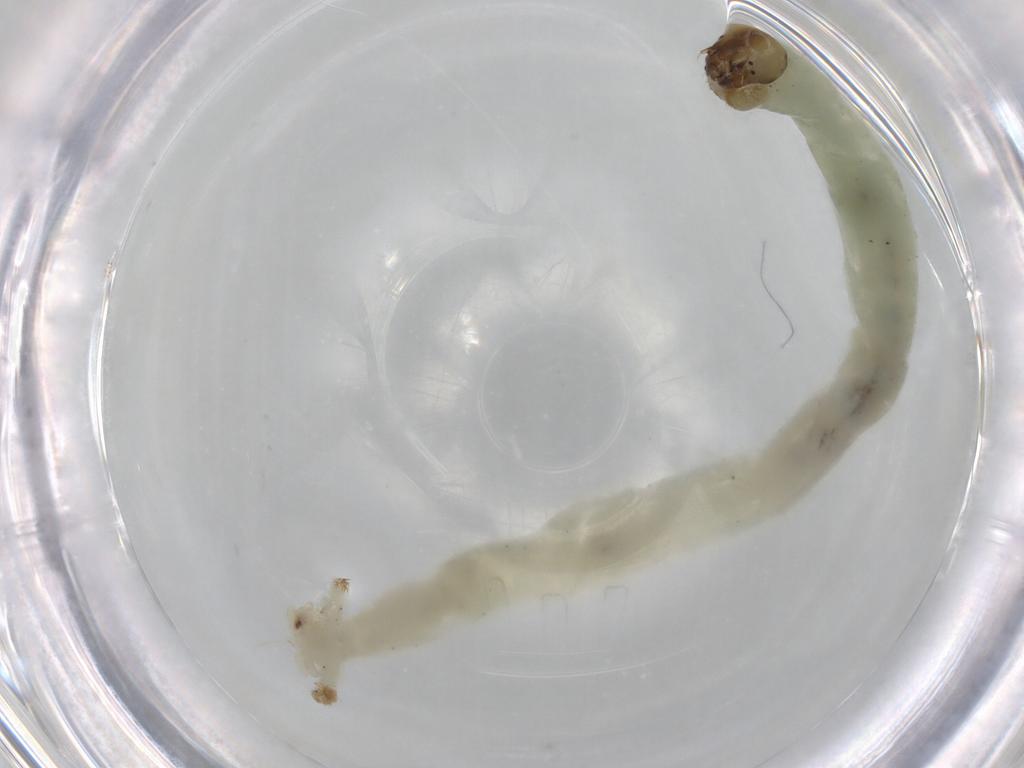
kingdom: Animalia
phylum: Arthropoda
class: Insecta
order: Diptera
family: Chironomidae
